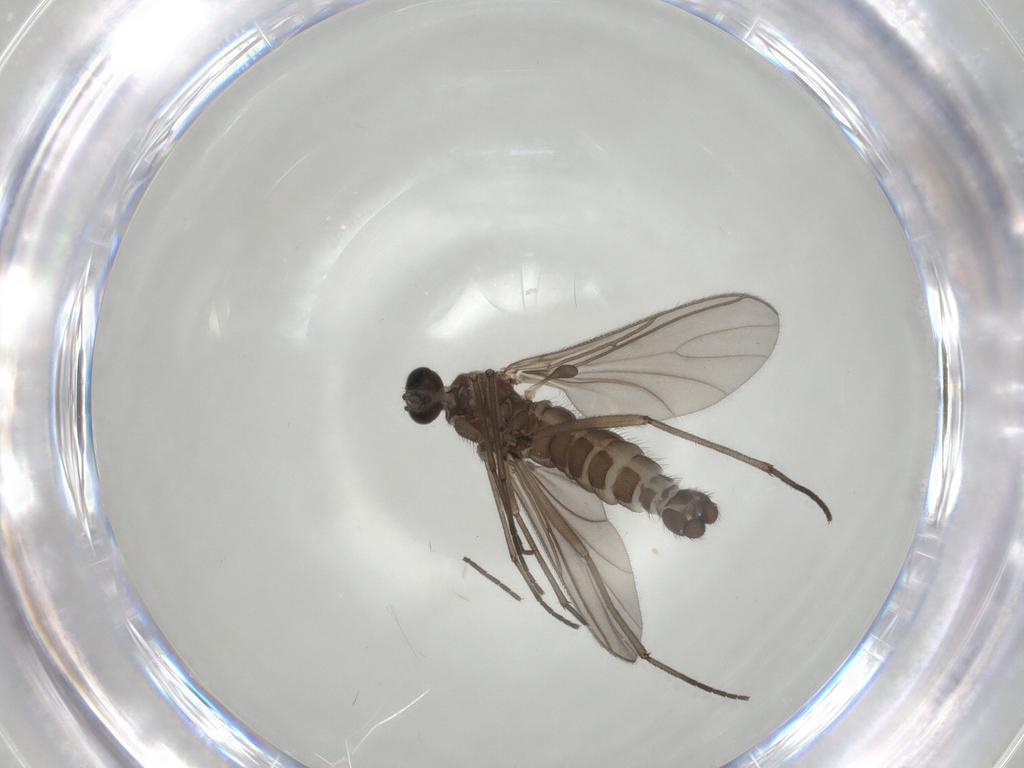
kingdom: Animalia
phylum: Arthropoda
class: Insecta
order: Diptera
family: Sciaridae
